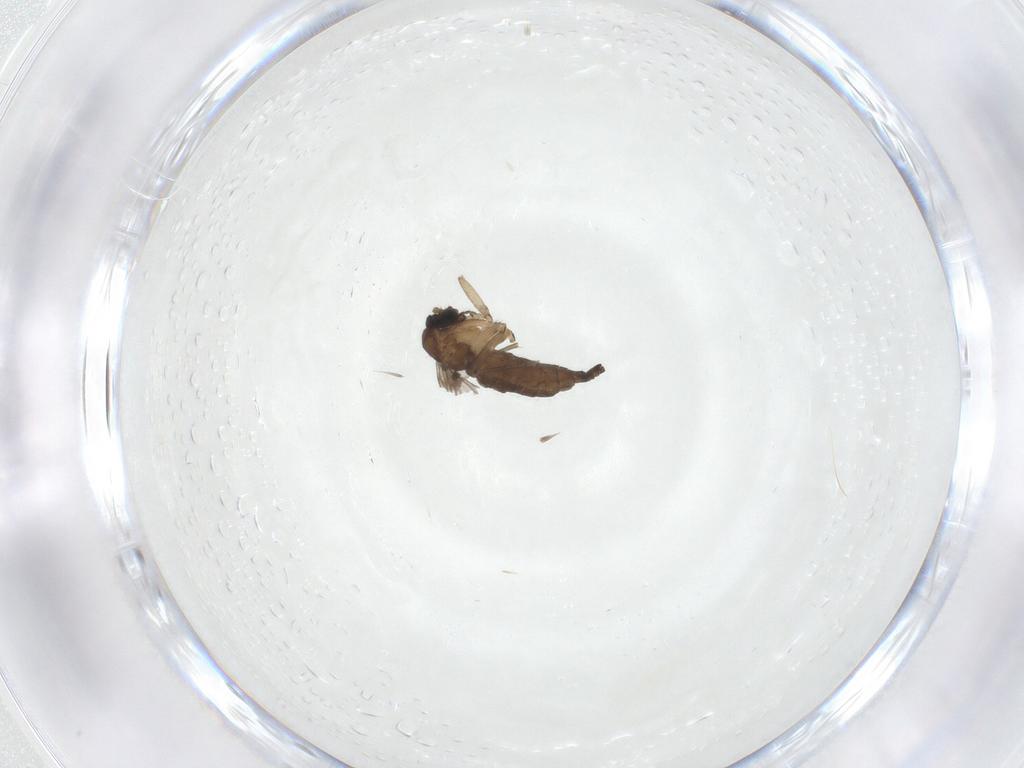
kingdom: Animalia
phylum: Arthropoda
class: Insecta
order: Diptera
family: Sciaridae
